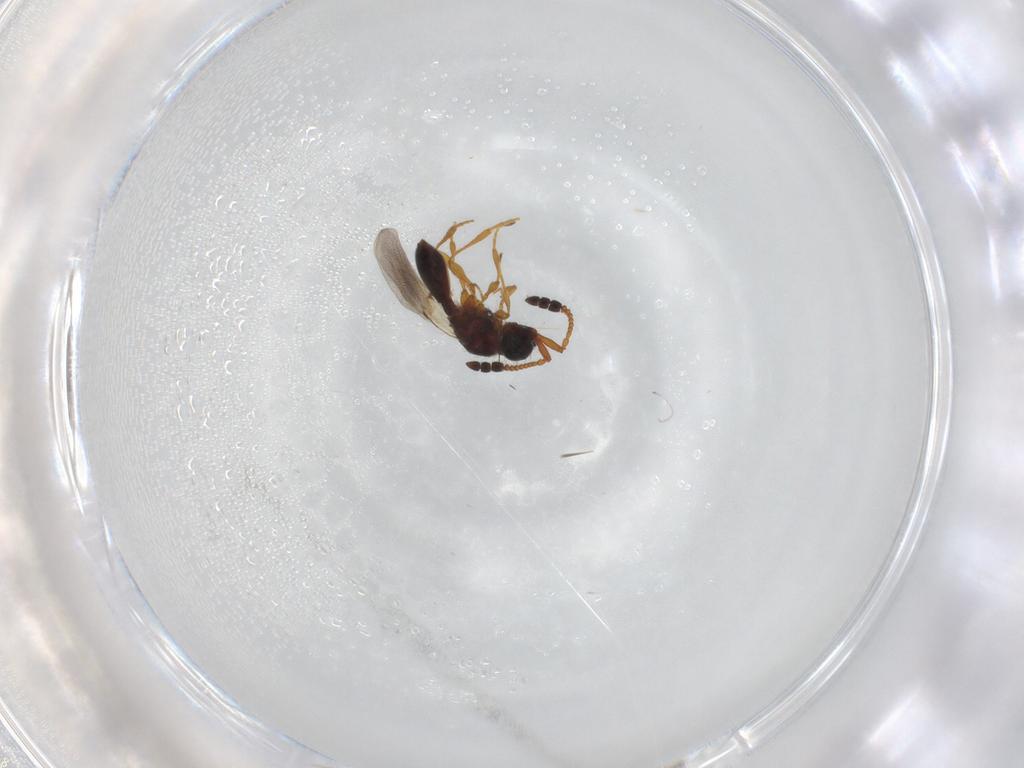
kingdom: Animalia
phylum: Arthropoda
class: Insecta
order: Hymenoptera
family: Diapriidae
